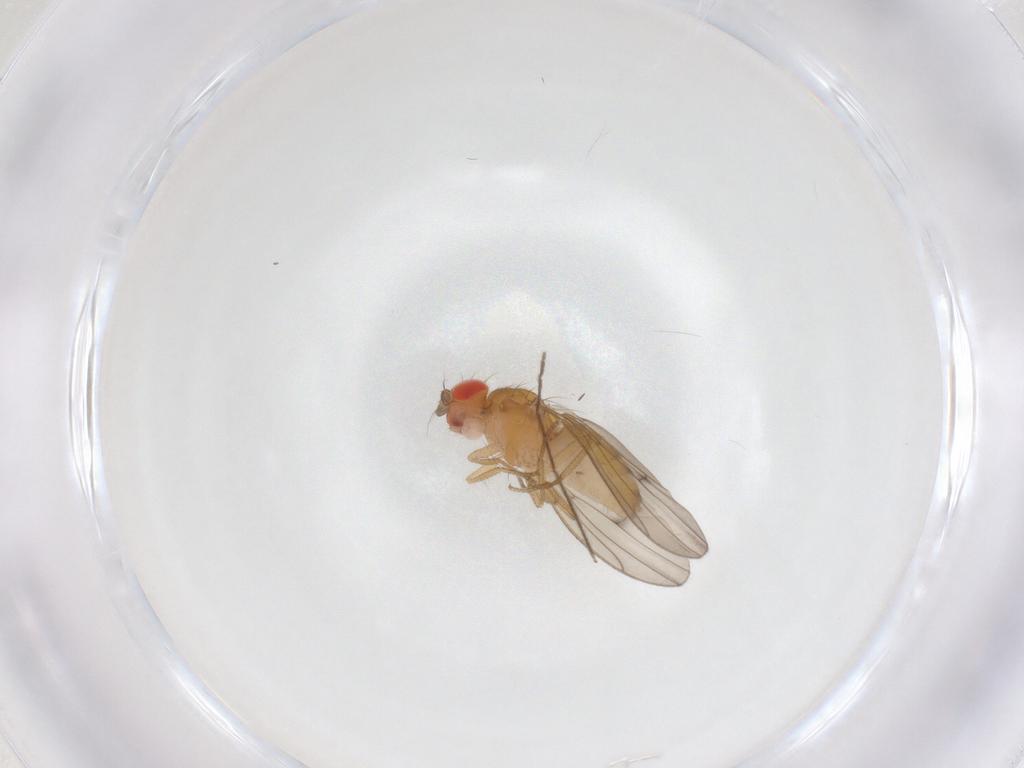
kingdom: Animalia
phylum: Arthropoda
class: Insecta
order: Diptera
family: Drosophilidae
